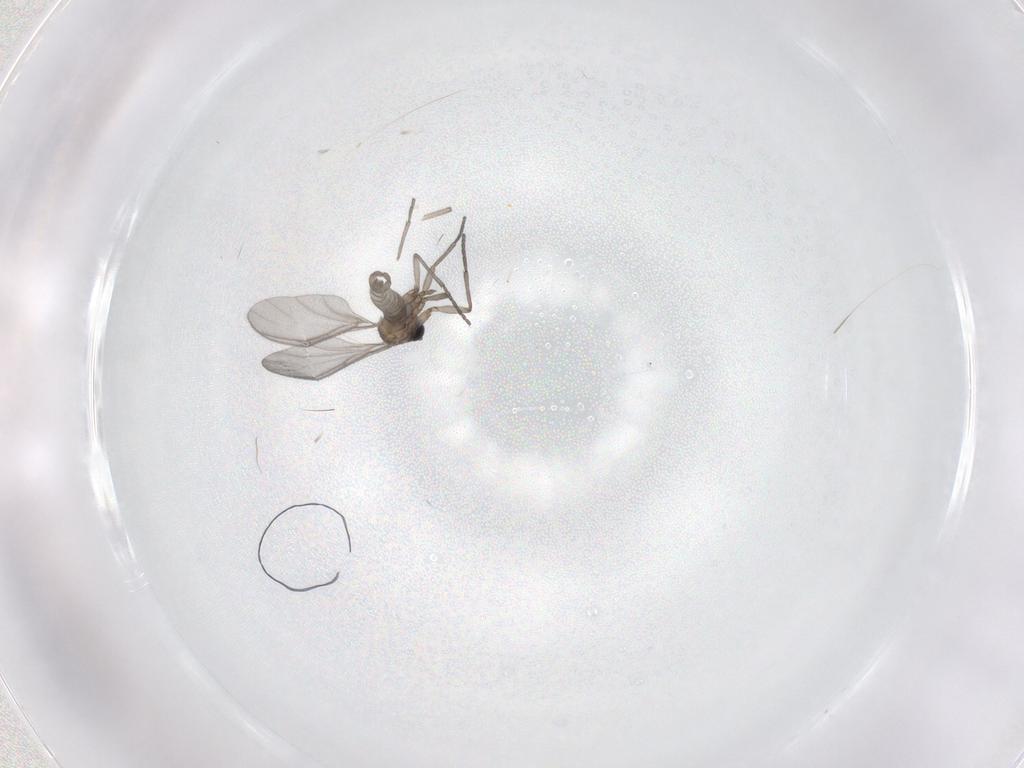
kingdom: Animalia
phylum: Arthropoda
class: Insecta
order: Diptera
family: Sciaridae
